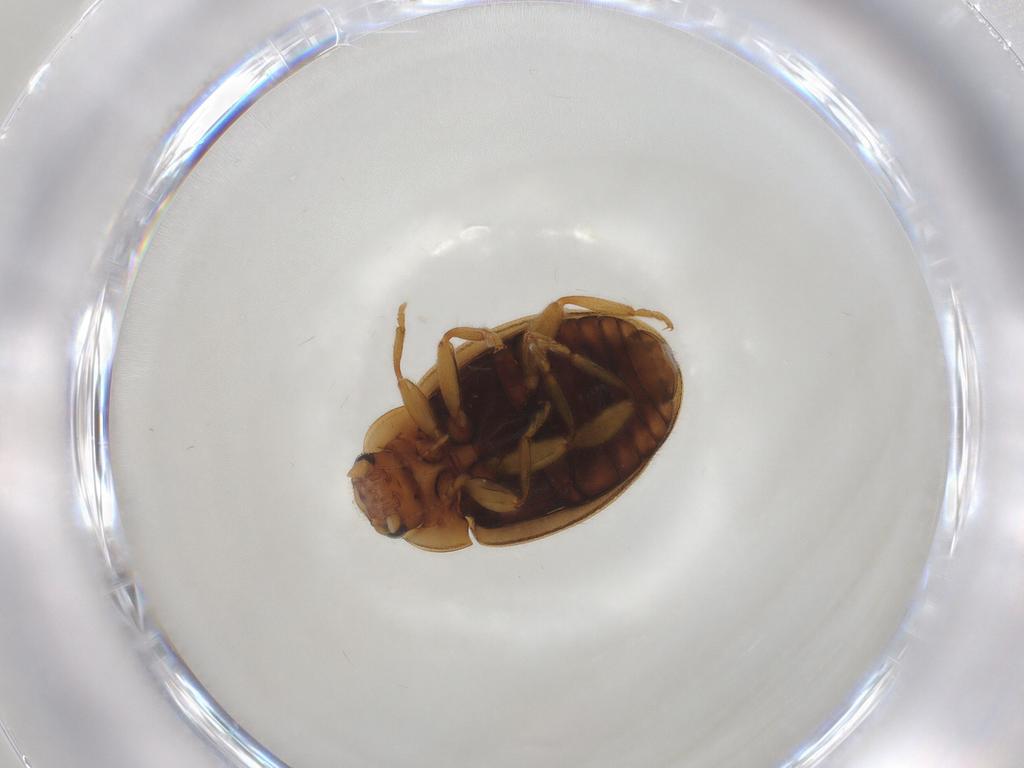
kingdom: Animalia
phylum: Arthropoda
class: Insecta
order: Coleoptera
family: Coccinellidae
